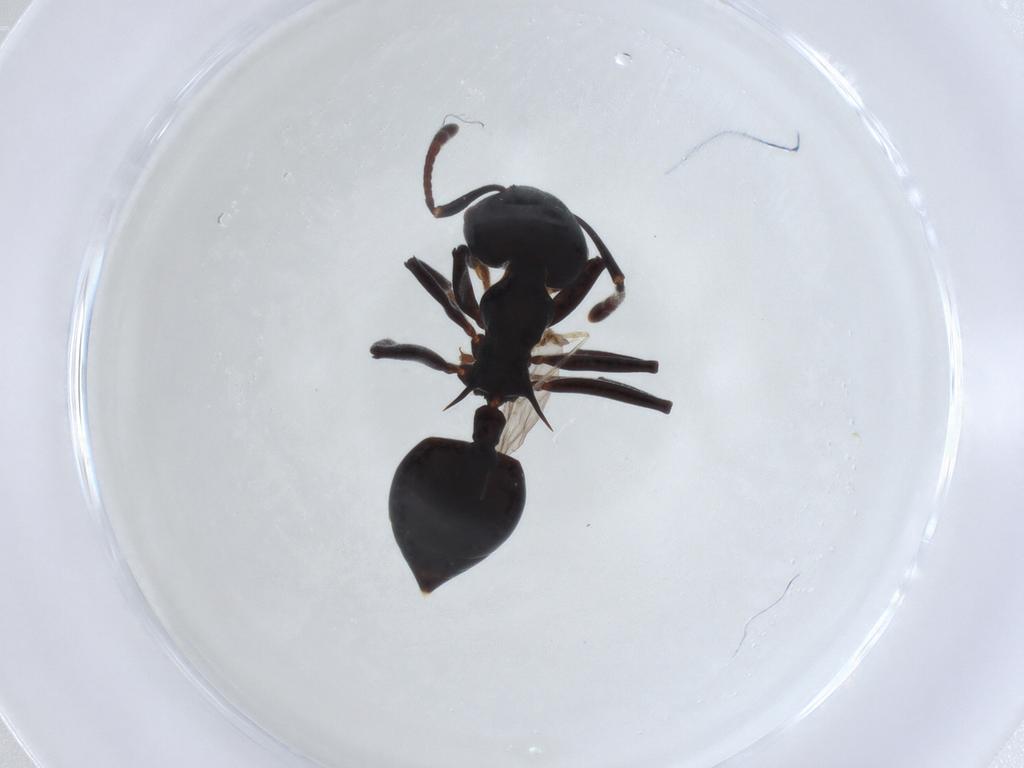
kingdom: Animalia
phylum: Arthropoda
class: Insecta
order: Hymenoptera
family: Formicidae
